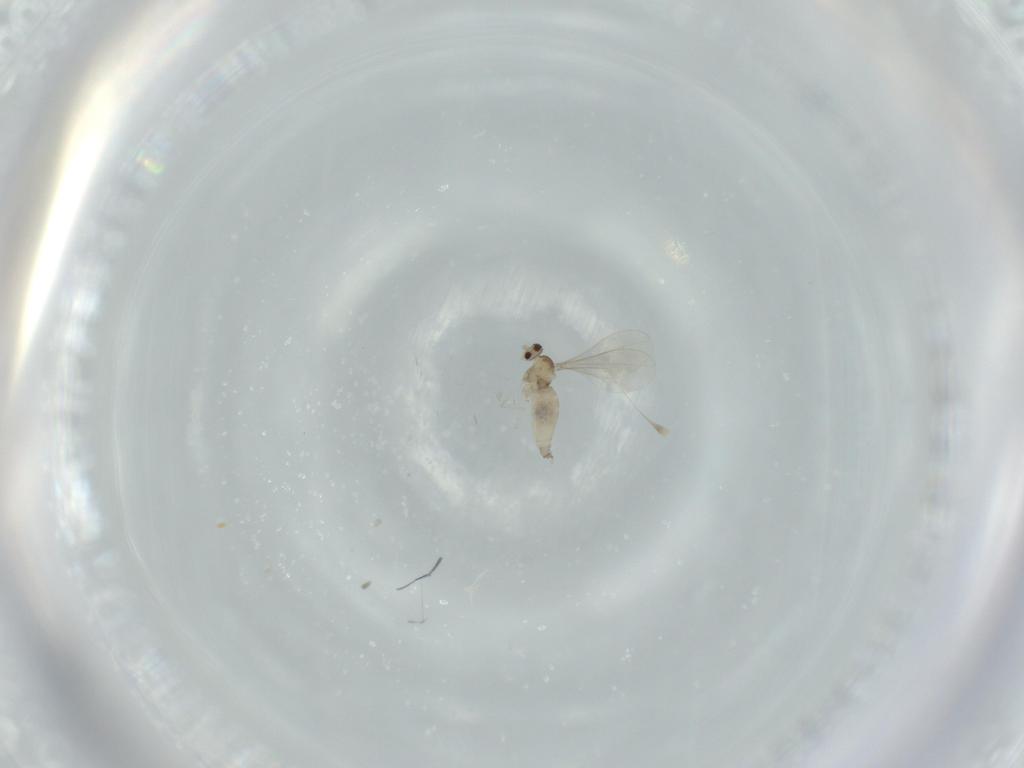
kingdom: Animalia
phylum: Arthropoda
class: Insecta
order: Diptera
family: Cecidomyiidae
